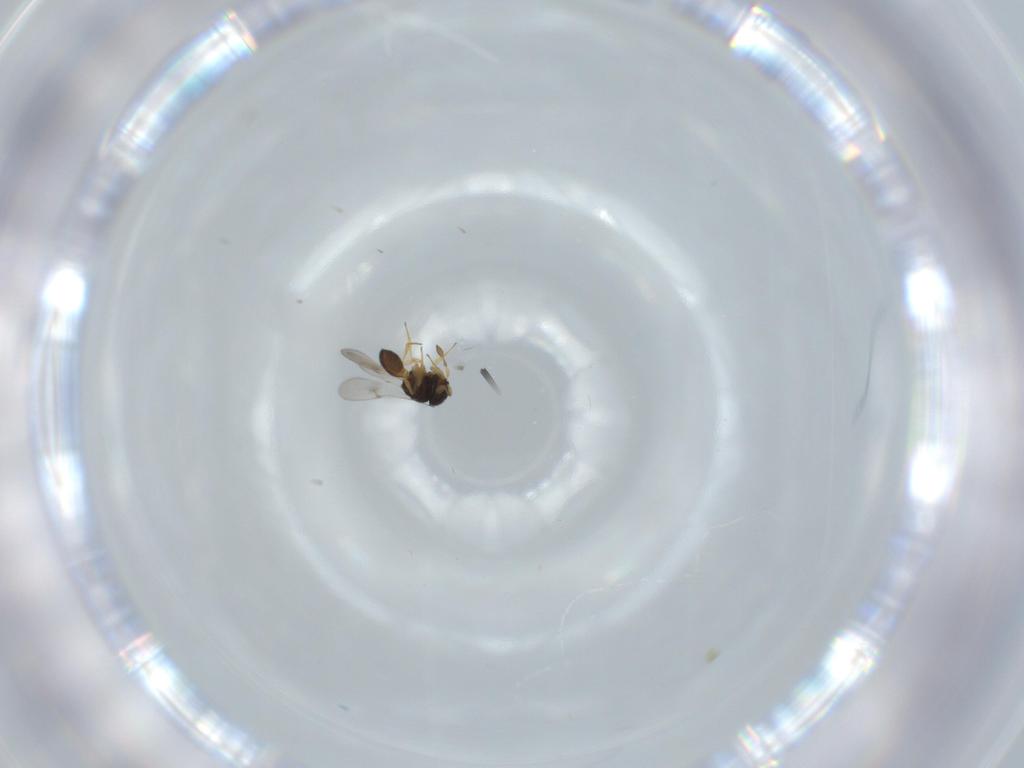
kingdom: Animalia
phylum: Arthropoda
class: Insecta
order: Hymenoptera
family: Scelionidae
